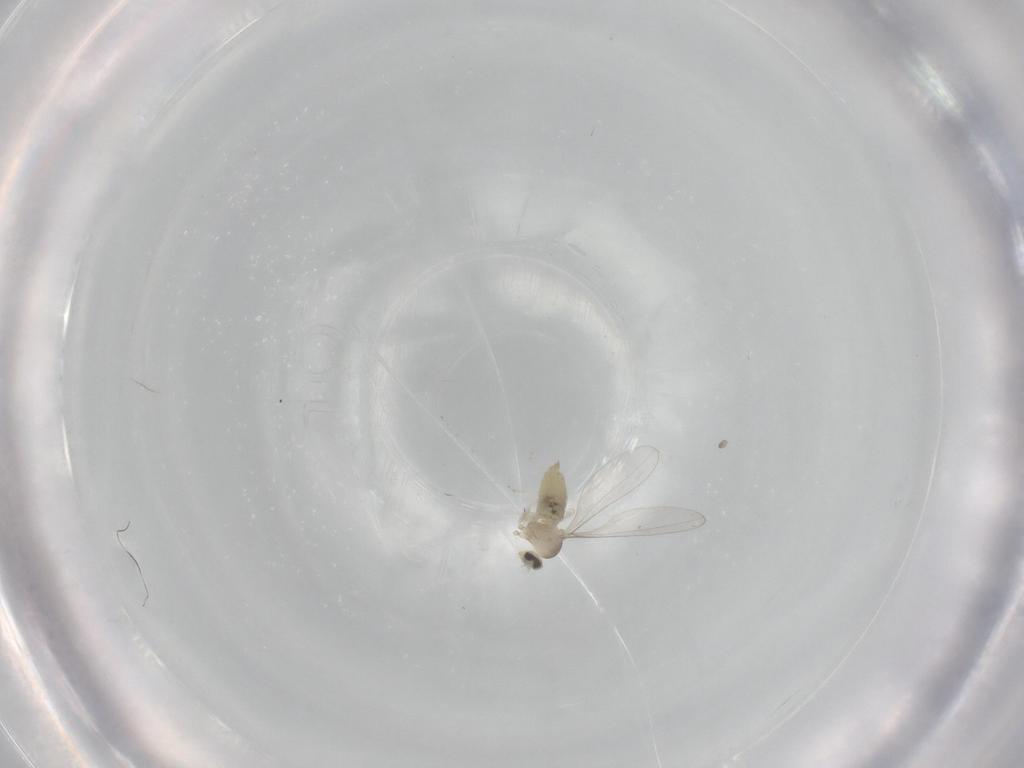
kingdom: Animalia
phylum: Arthropoda
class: Insecta
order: Diptera
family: Cecidomyiidae
